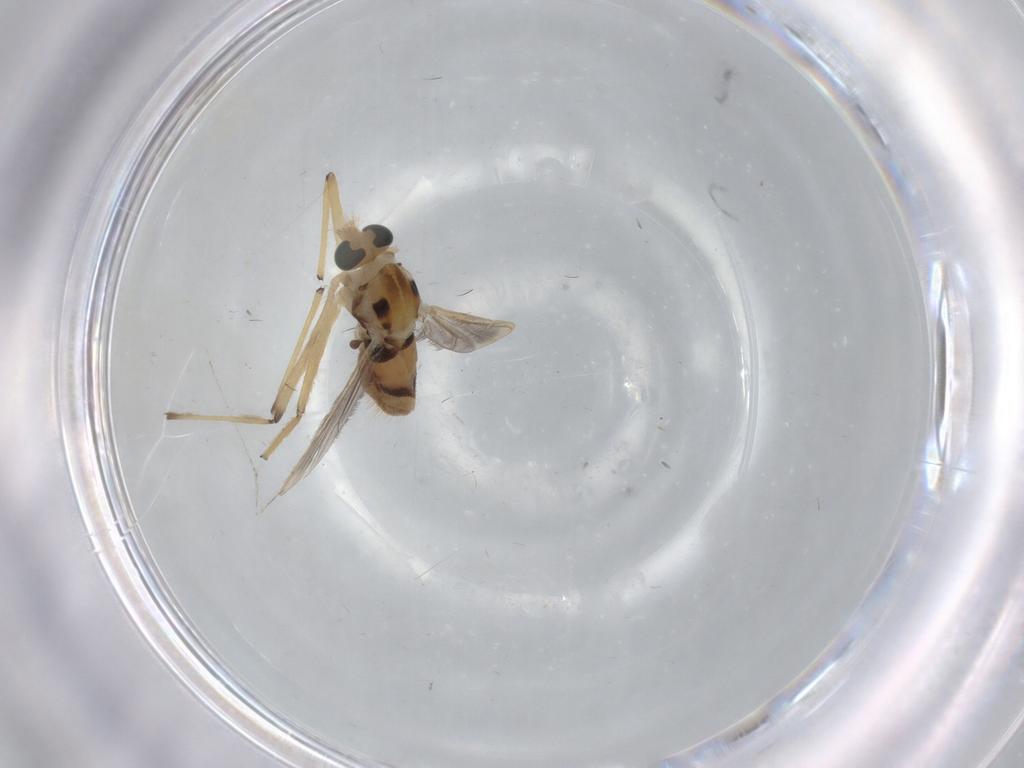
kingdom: Animalia
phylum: Arthropoda
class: Insecta
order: Diptera
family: Chironomidae
